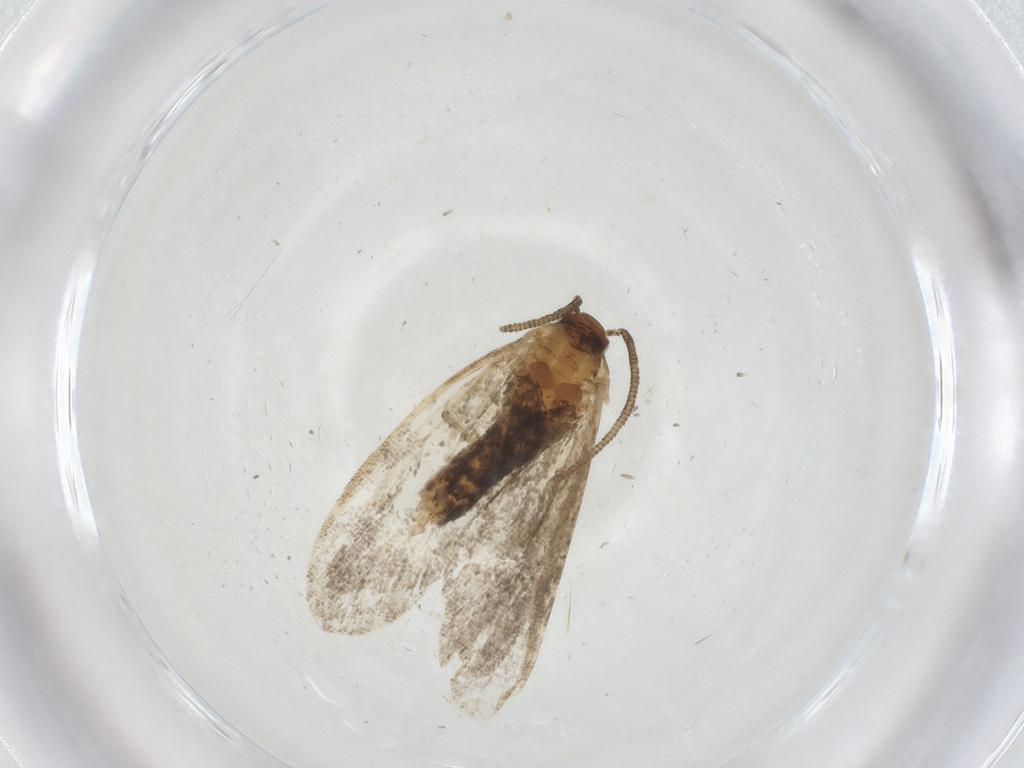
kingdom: Animalia
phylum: Arthropoda
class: Insecta
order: Lepidoptera
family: Dryadaulidae
